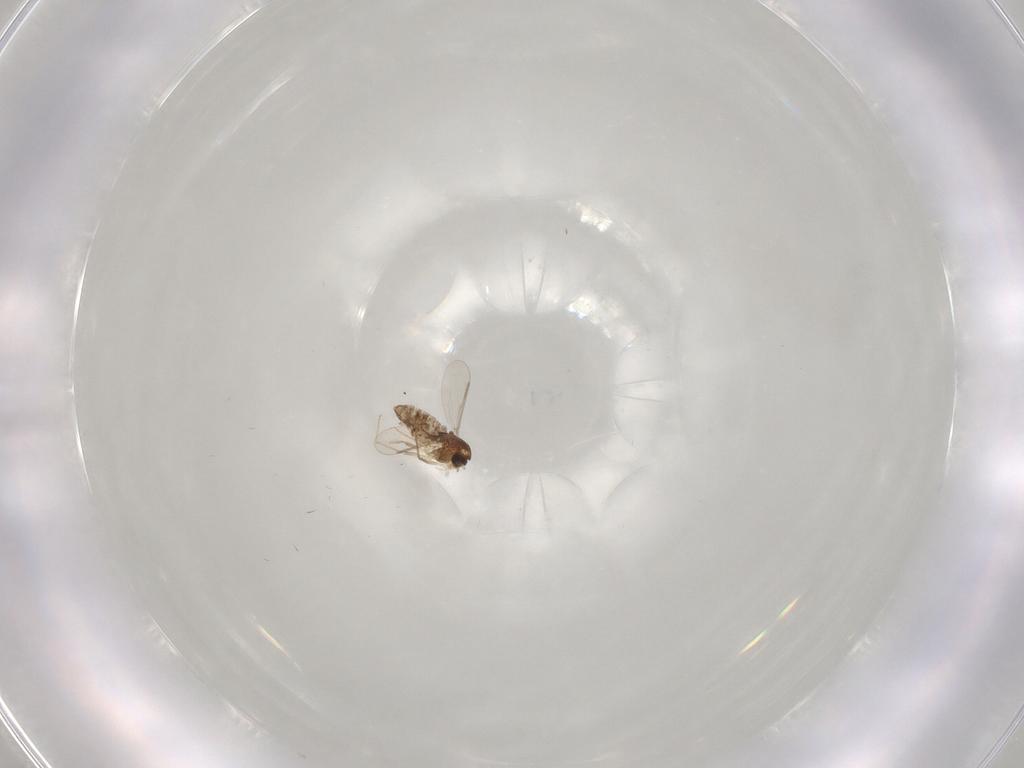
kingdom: Animalia
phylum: Arthropoda
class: Insecta
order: Diptera
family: Chironomidae
